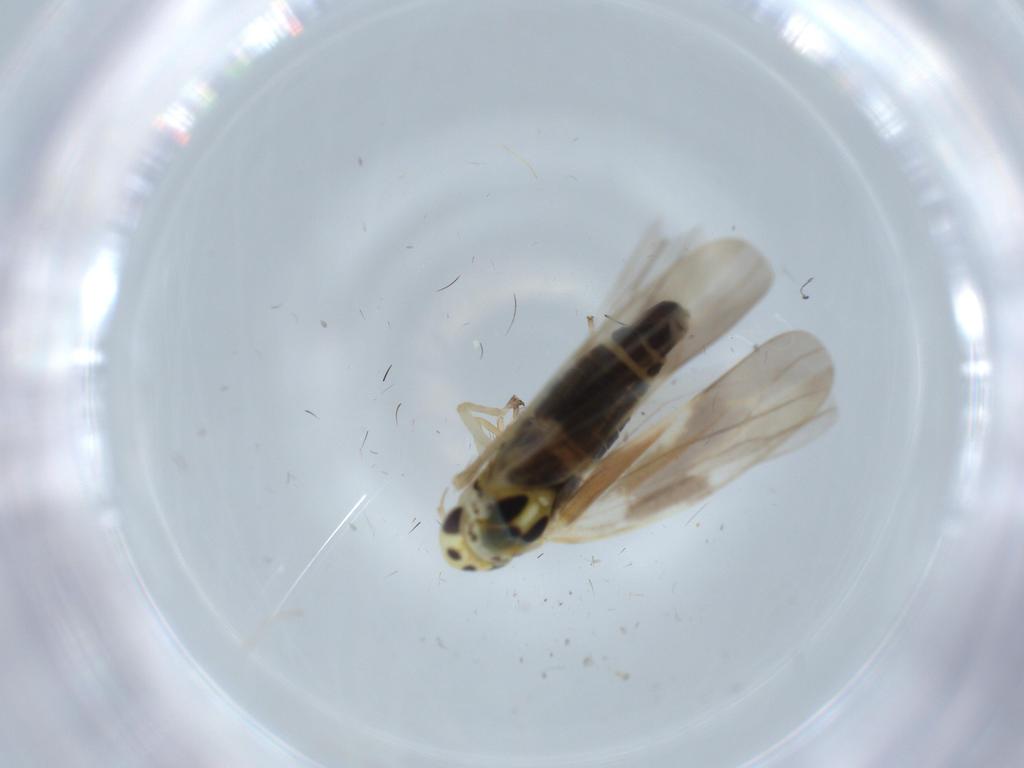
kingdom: Animalia
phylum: Arthropoda
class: Insecta
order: Hemiptera
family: Cicadellidae
